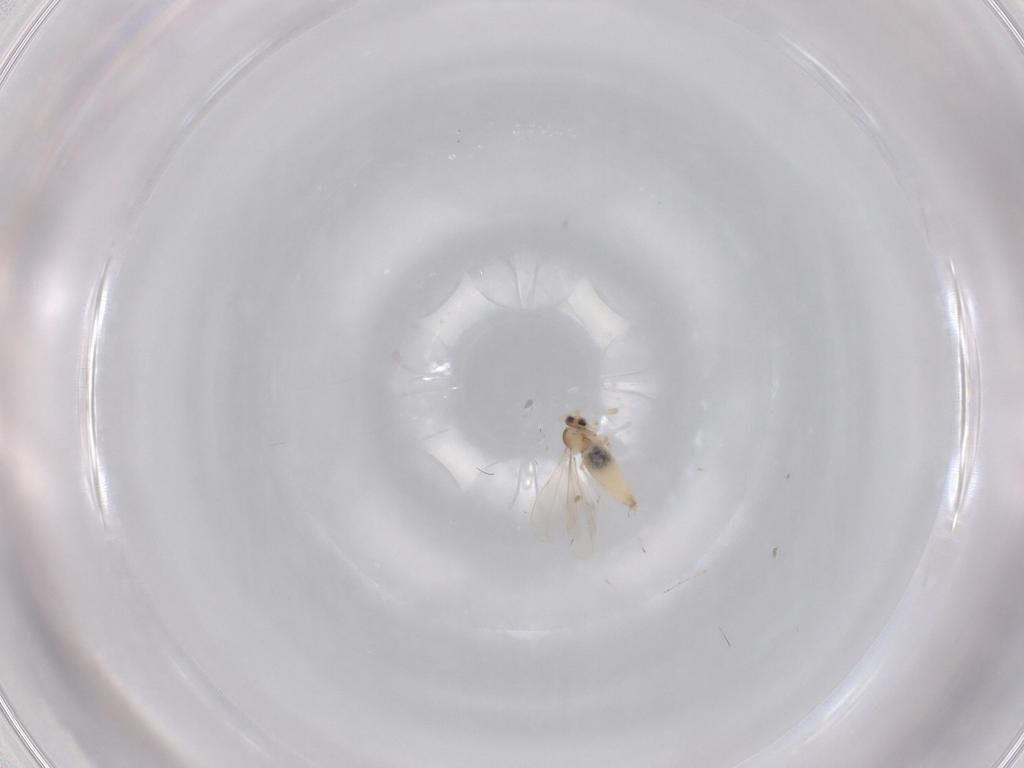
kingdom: Animalia
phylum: Arthropoda
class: Insecta
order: Diptera
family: Cecidomyiidae
